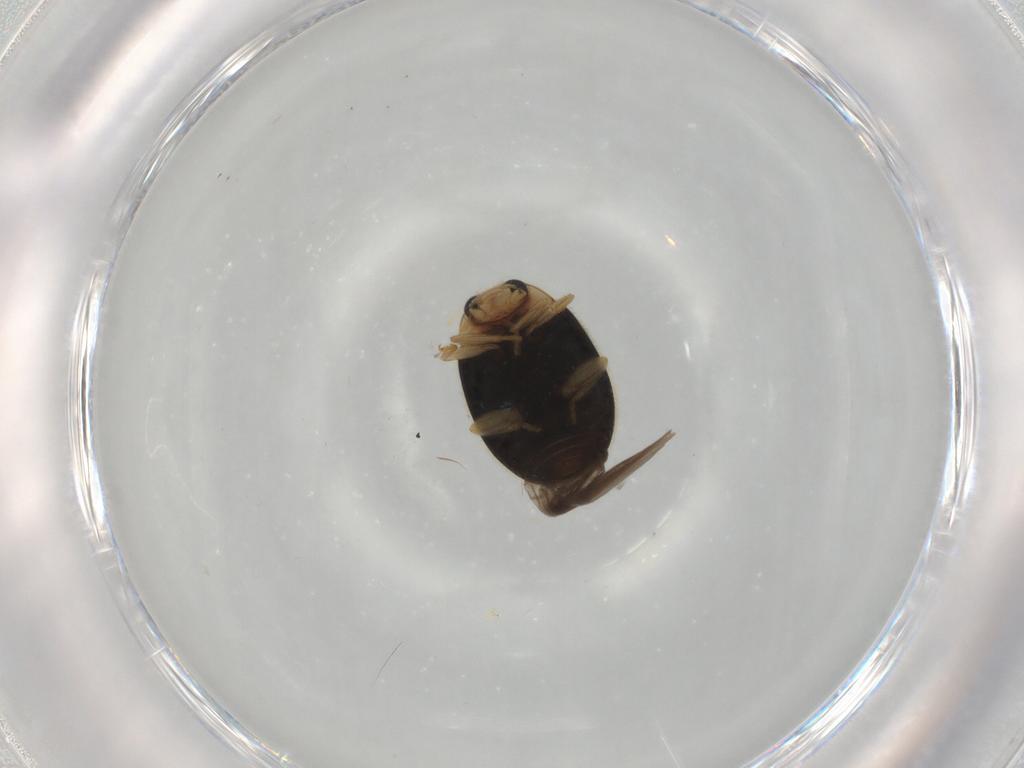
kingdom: Animalia
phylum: Arthropoda
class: Insecta
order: Coleoptera
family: Coccinellidae
